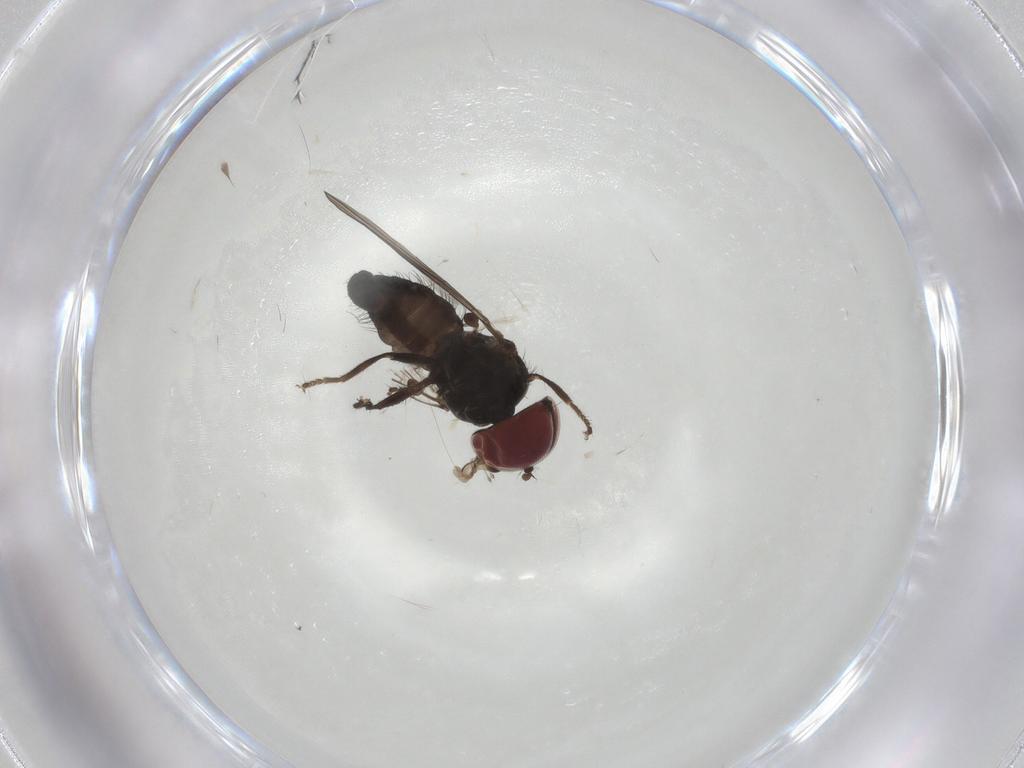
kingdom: Animalia
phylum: Arthropoda
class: Insecta
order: Diptera
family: Pipunculidae
